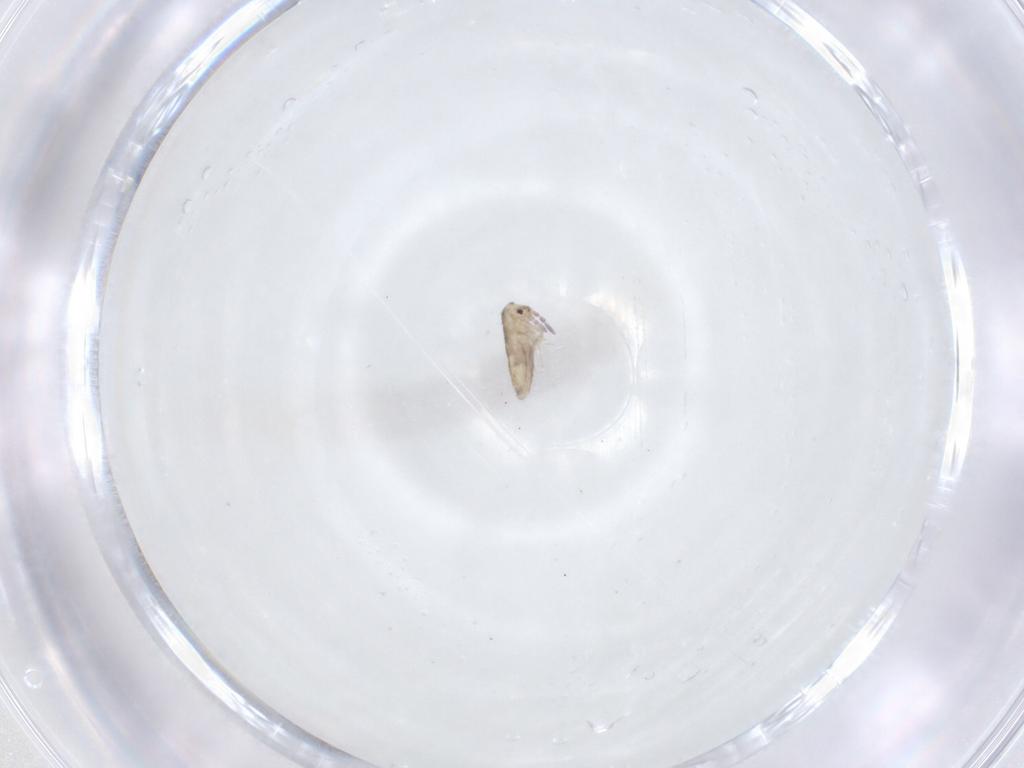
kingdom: Animalia
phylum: Arthropoda
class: Collembola
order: Entomobryomorpha
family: Entomobryidae
